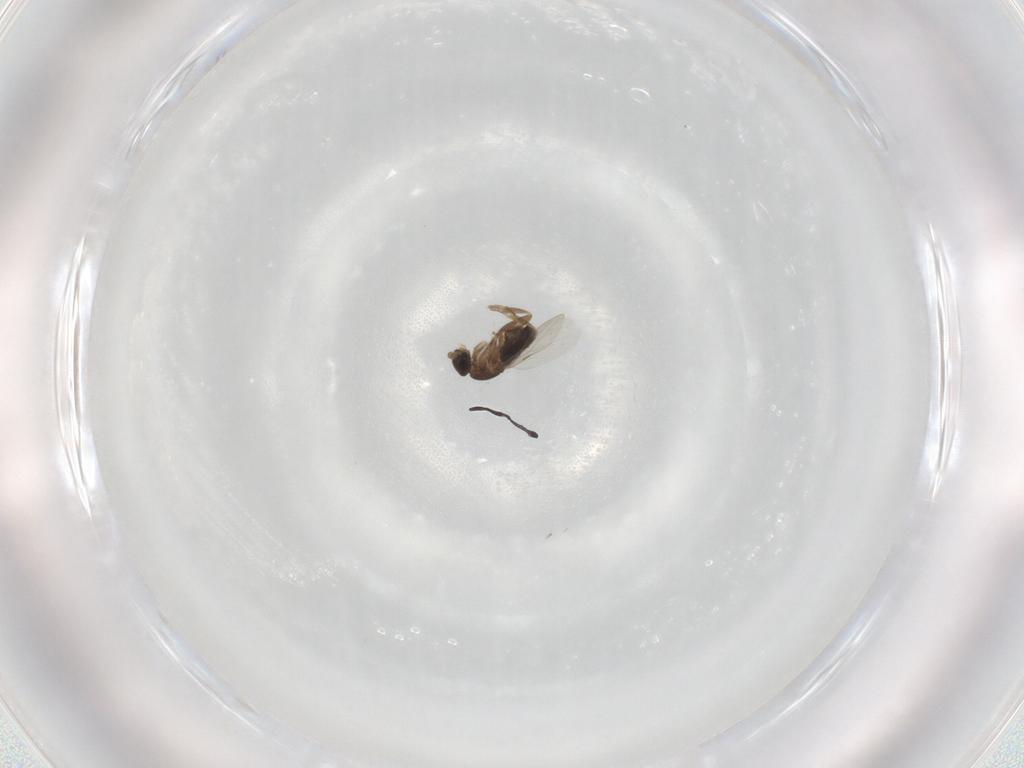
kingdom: Animalia
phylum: Arthropoda
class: Insecta
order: Diptera
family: Phoridae
